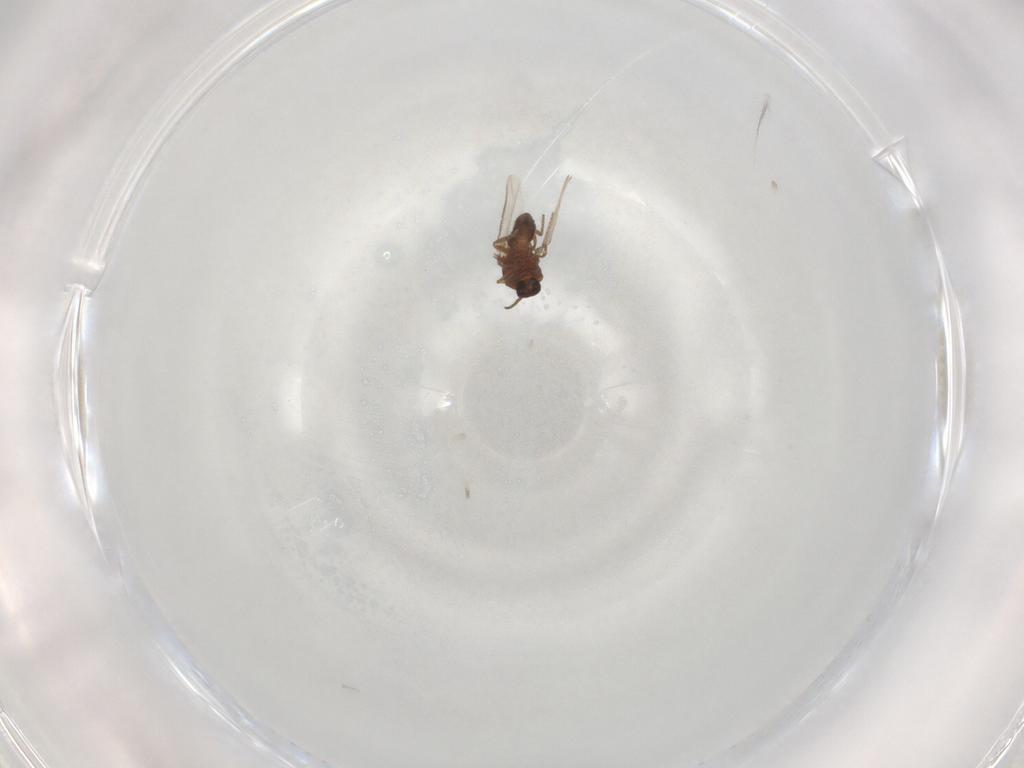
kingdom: Animalia
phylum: Arthropoda
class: Insecta
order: Diptera
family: Ceratopogonidae
